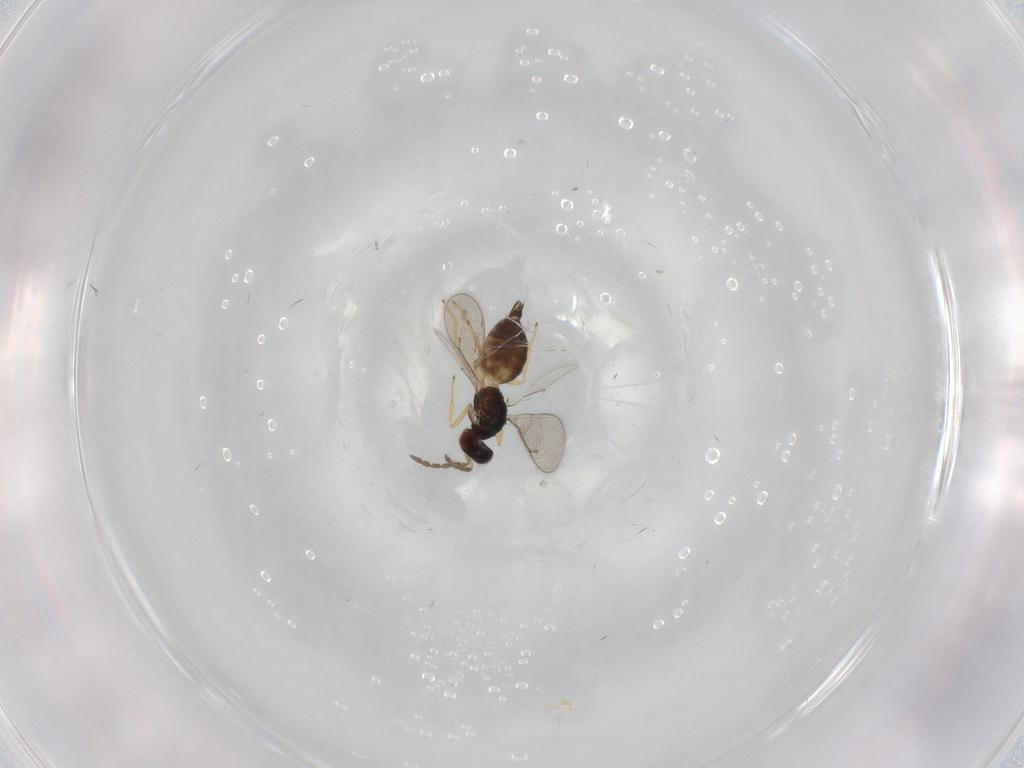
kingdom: Animalia
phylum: Arthropoda
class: Insecta
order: Hymenoptera
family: Eulophidae
